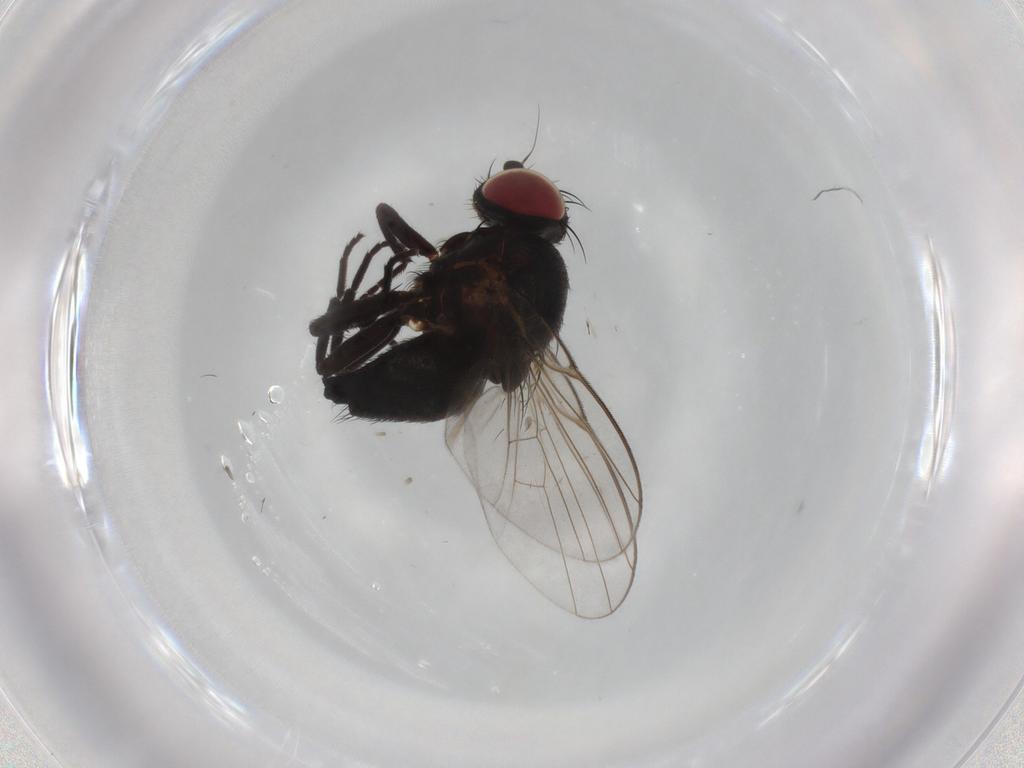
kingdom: Animalia
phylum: Arthropoda
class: Insecta
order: Diptera
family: Agromyzidae
